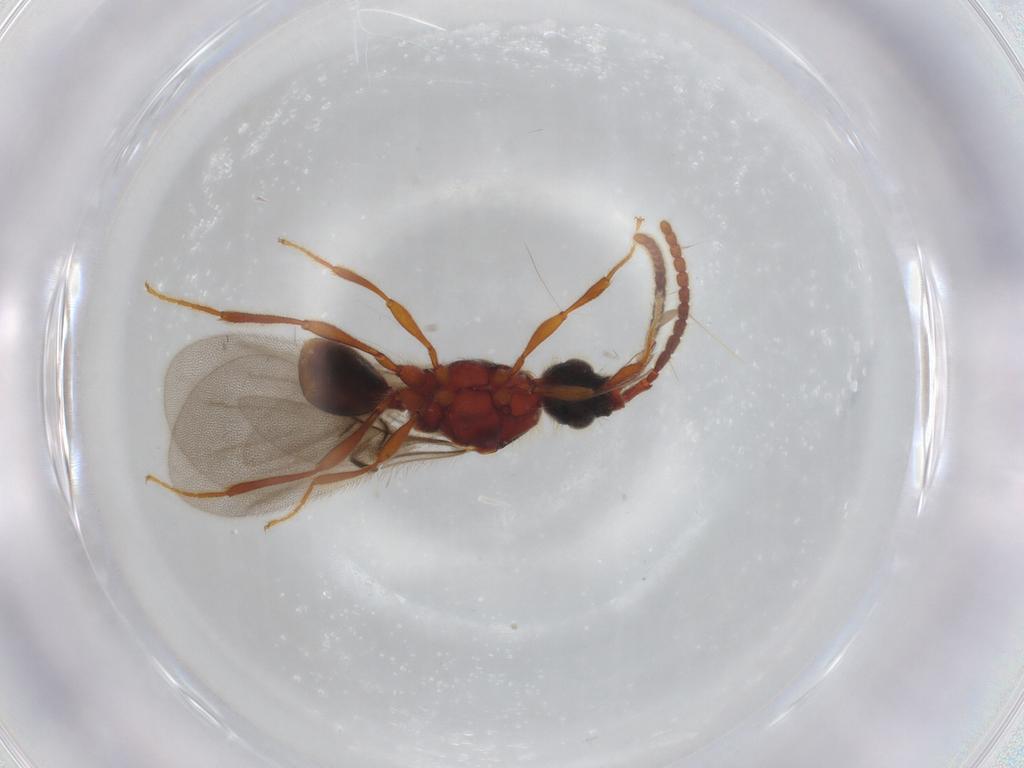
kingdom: Animalia
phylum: Arthropoda
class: Insecta
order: Hymenoptera
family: Diapriidae
